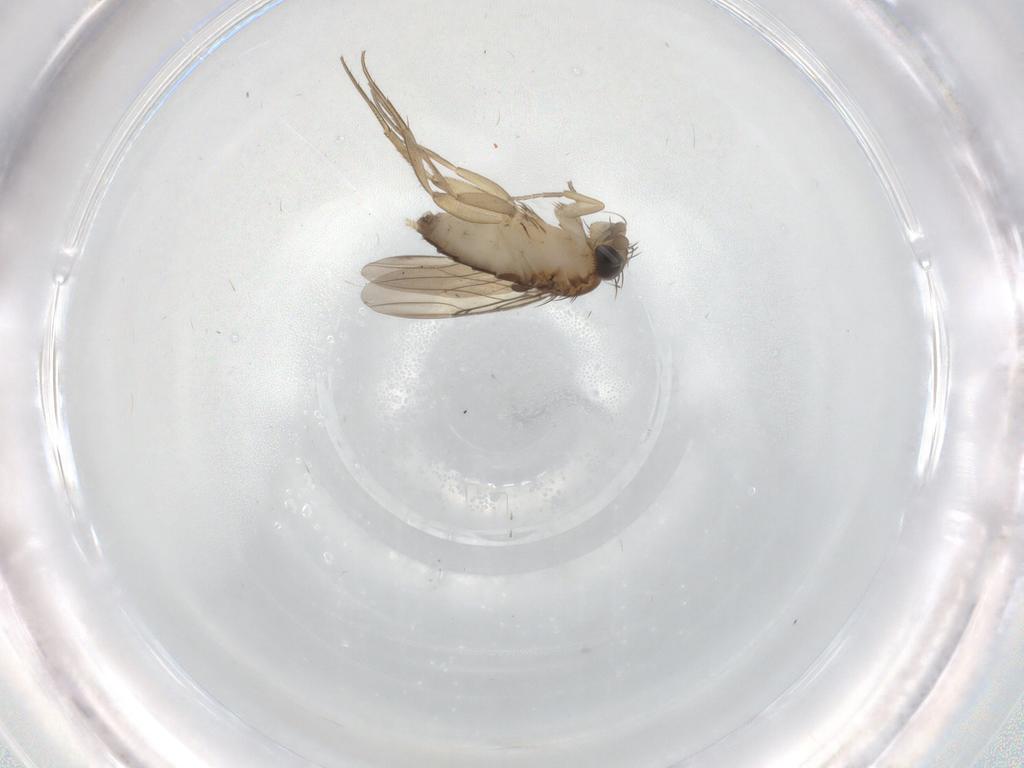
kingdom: Animalia
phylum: Arthropoda
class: Insecta
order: Diptera
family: Phoridae
